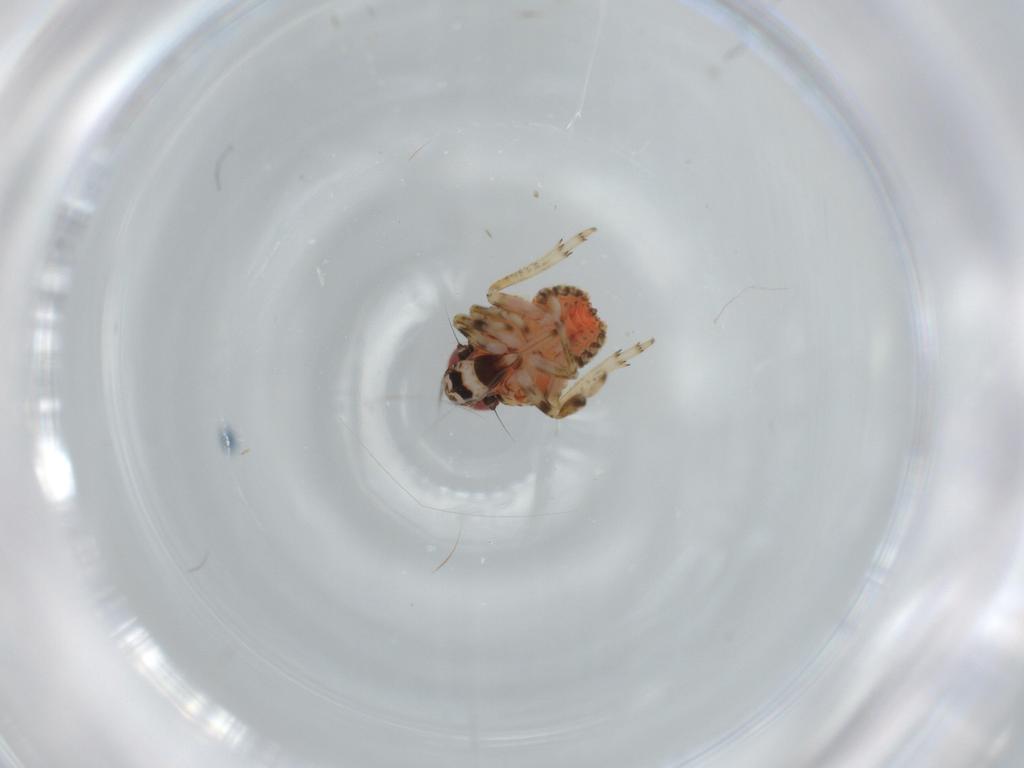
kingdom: Animalia
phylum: Arthropoda
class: Insecta
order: Hemiptera
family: Issidae
